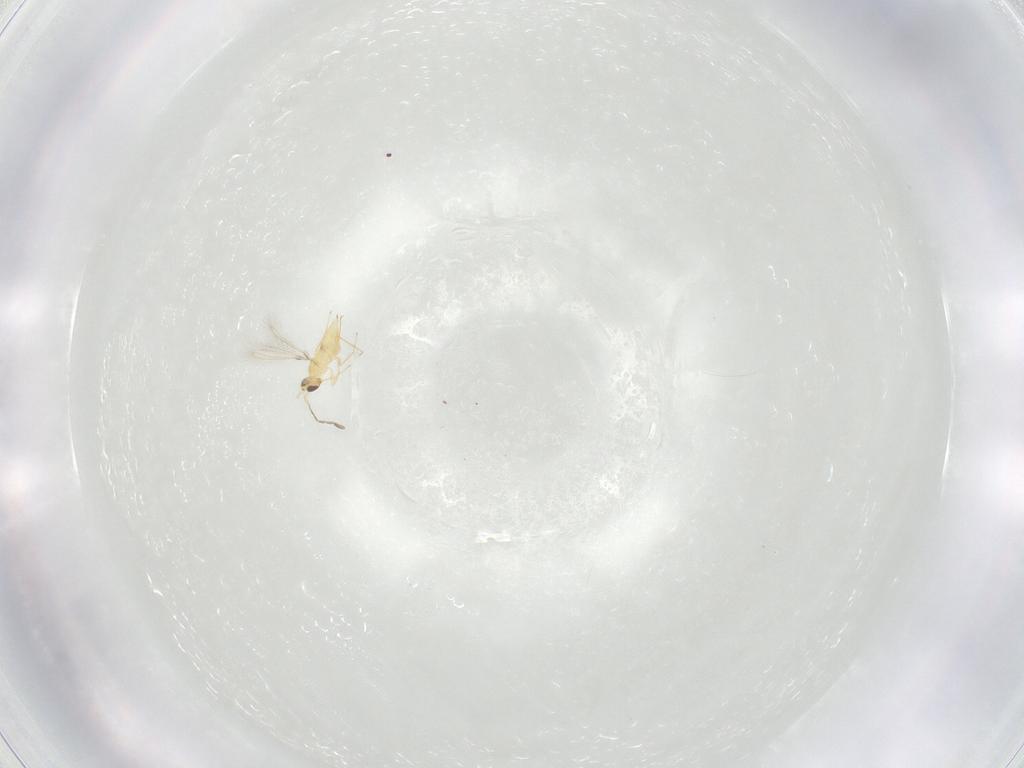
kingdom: Animalia
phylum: Arthropoda
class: Insecta
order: Hymenoptera
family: Mymaridae
